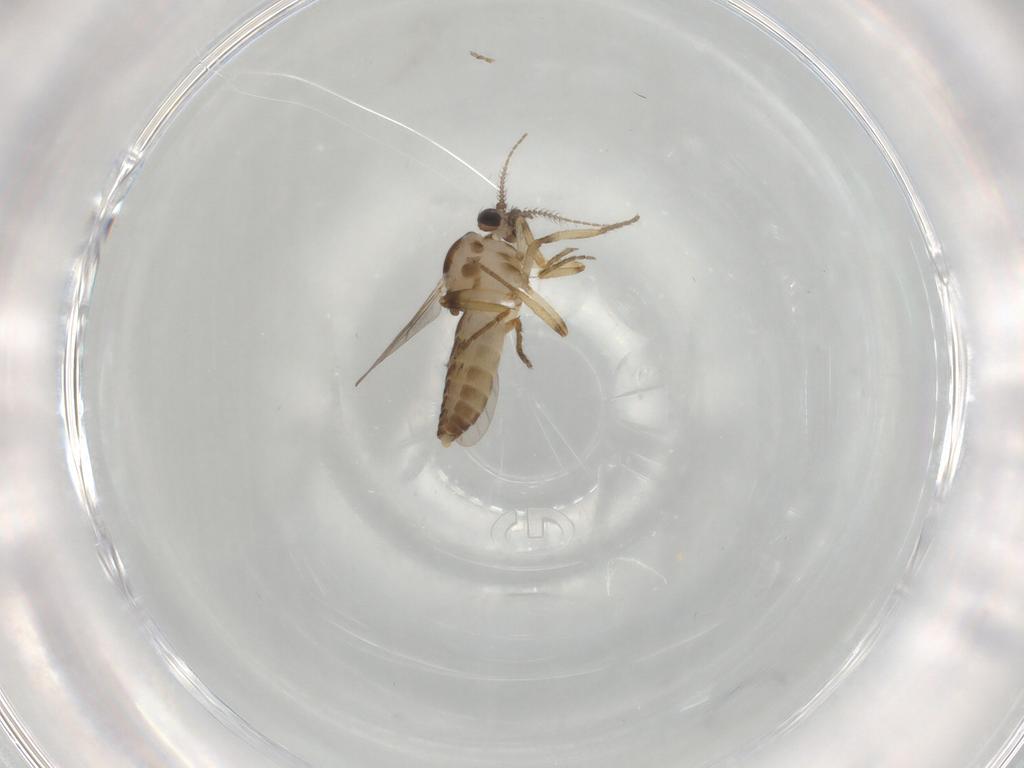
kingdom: Animalia
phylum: Arthropoda
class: Insecta
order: Diptera
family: Ceratopogonidae
